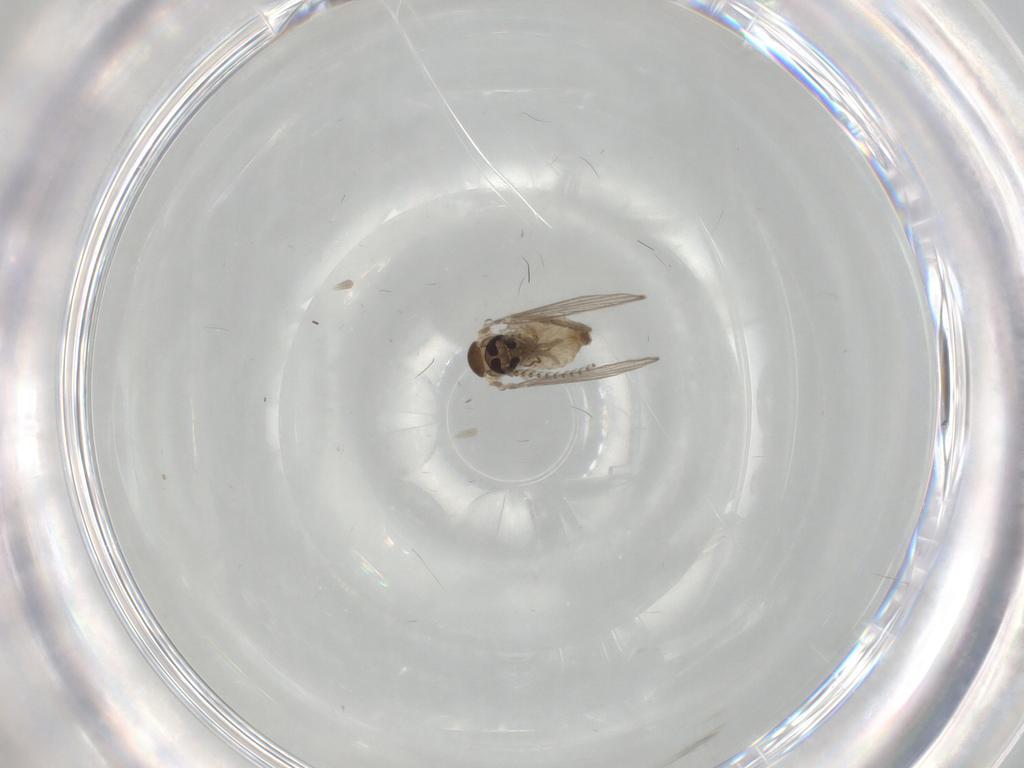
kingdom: Animalia
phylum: Arthropoda
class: Insecta
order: Diptera
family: Psychodidae
